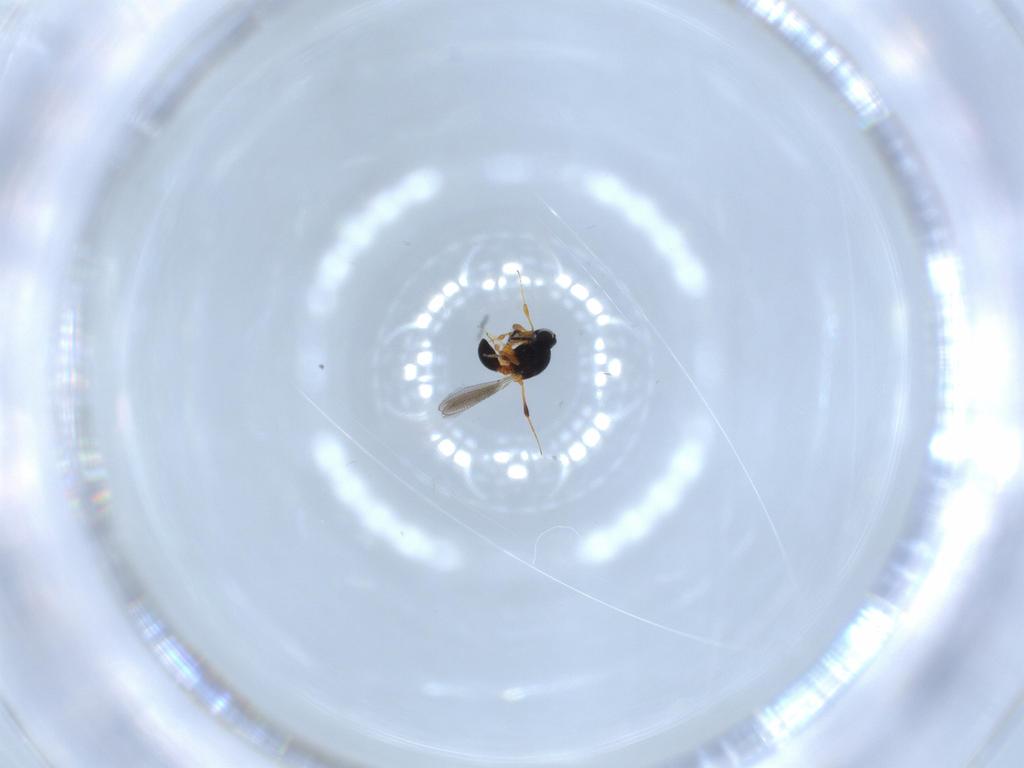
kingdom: Animalia
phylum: Arthropoda
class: Insecta
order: Hymenoptera
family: Platygastridae
